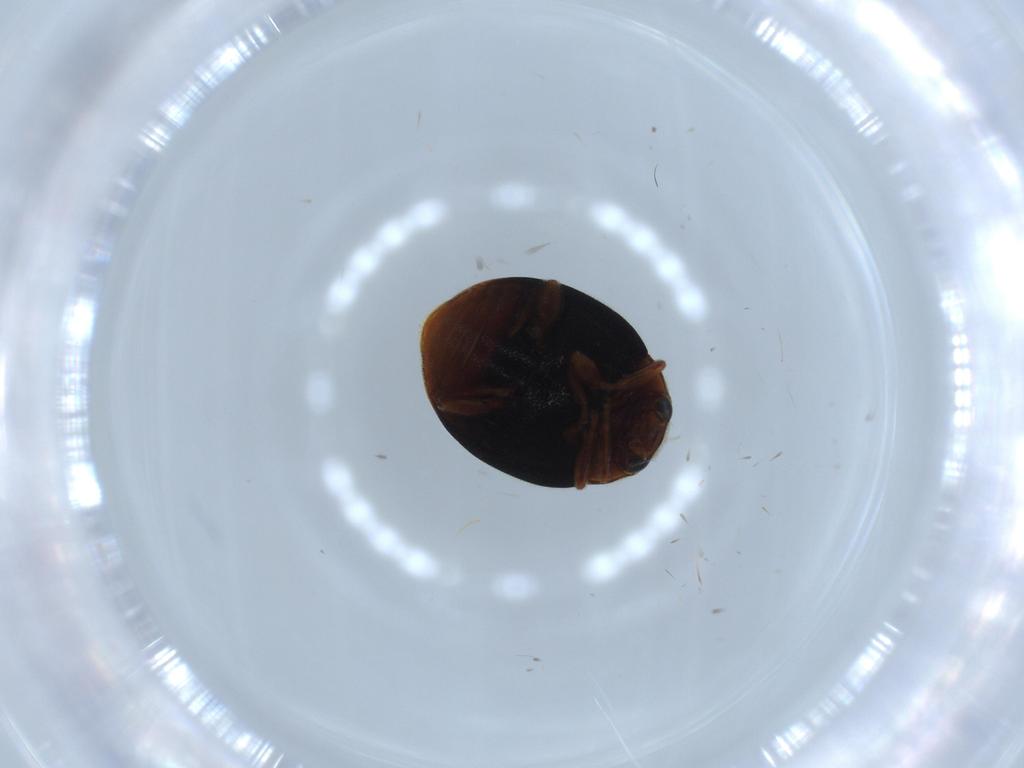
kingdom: Animalia
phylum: Arthropoda
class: Insecta
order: Coleoptera
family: Coccinellidae
